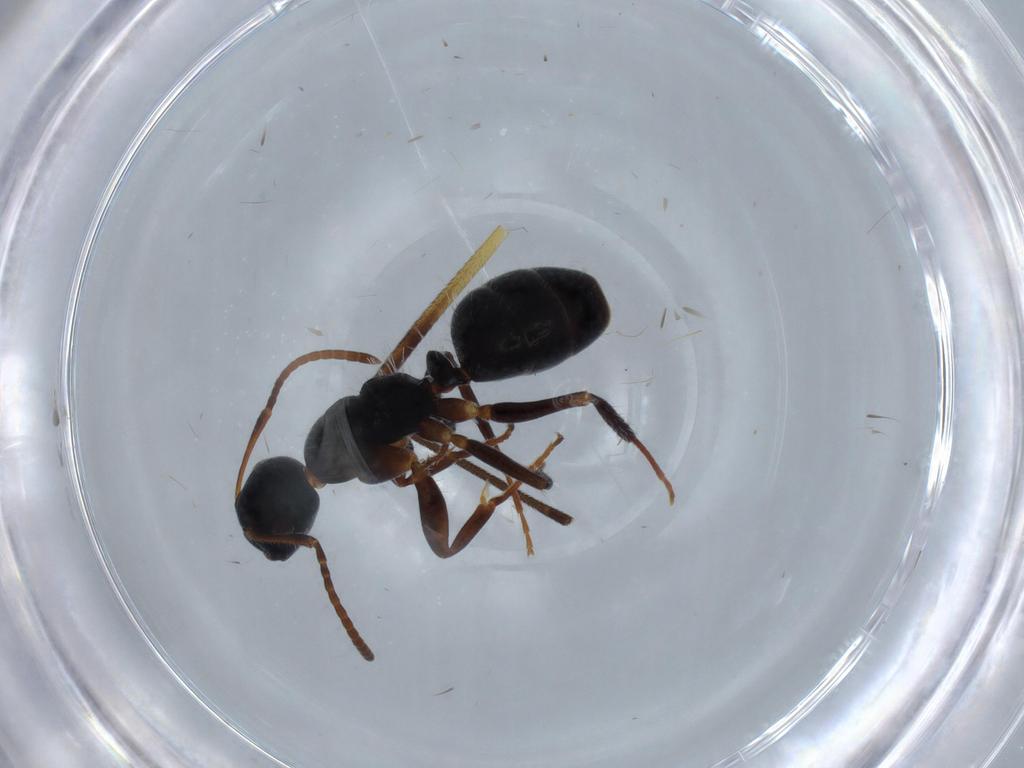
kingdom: Animalia
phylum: Arthropoda
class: Insecta
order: Hymenoptera
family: Formicidae
